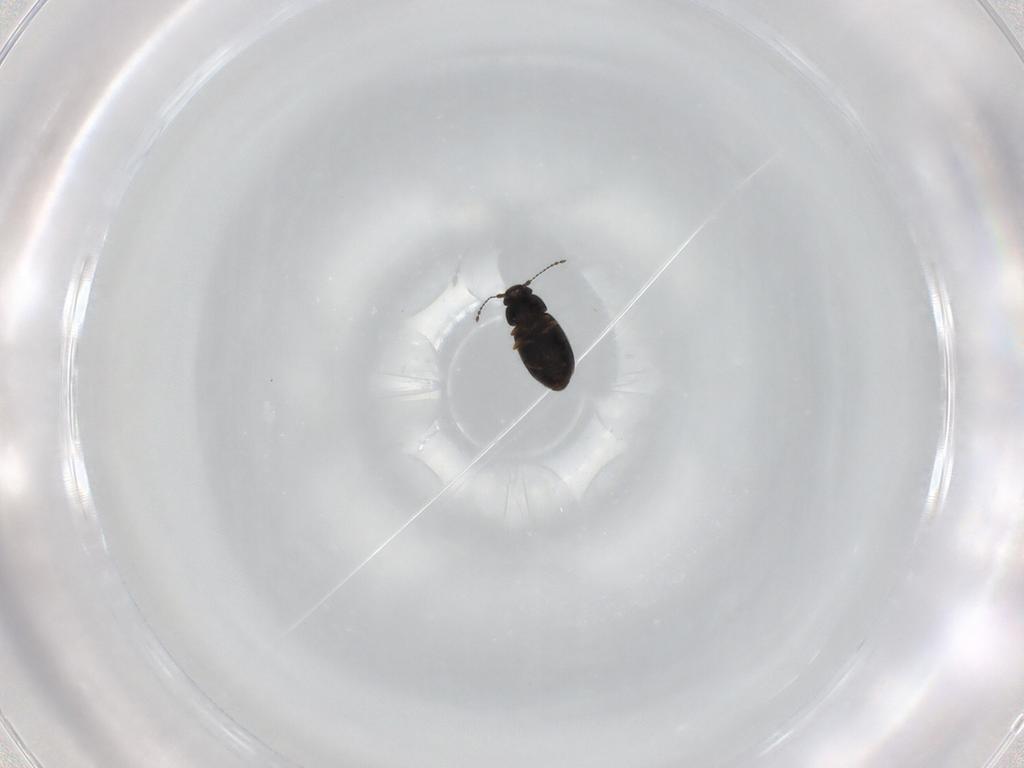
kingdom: Animalia
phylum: Arthropoda
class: Insecta
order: Coleoptera
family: Ptiliidae
